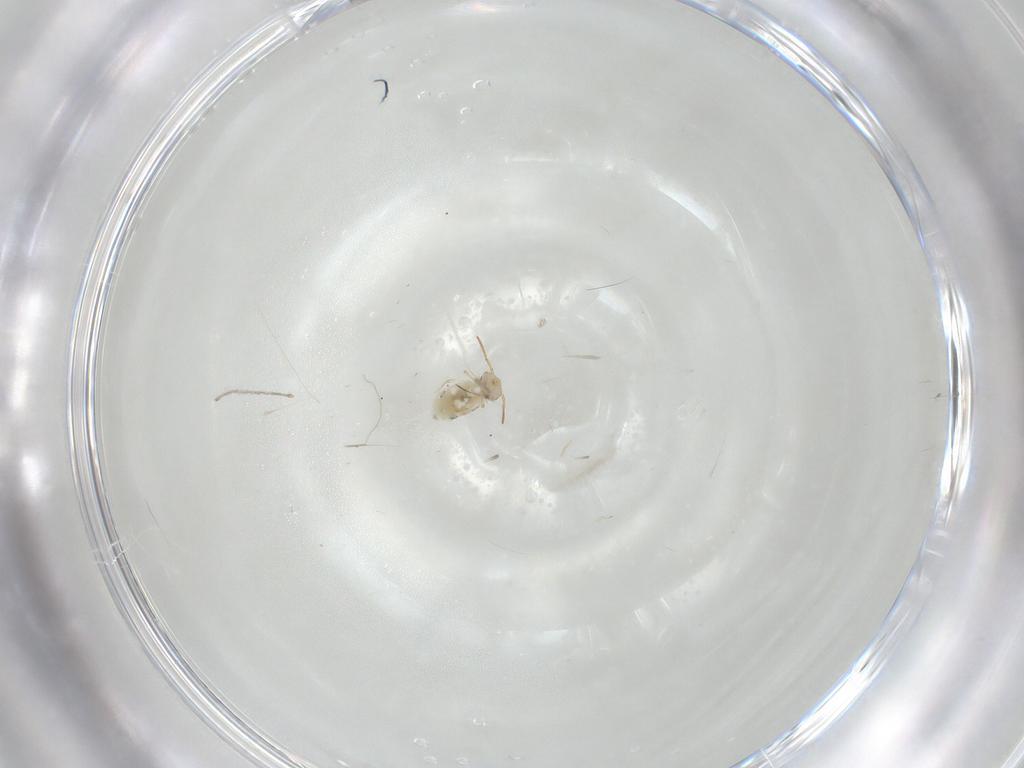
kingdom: Animalia
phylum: Arthropoda
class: Collembola
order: Symphypleona
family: Bourletiellidae
